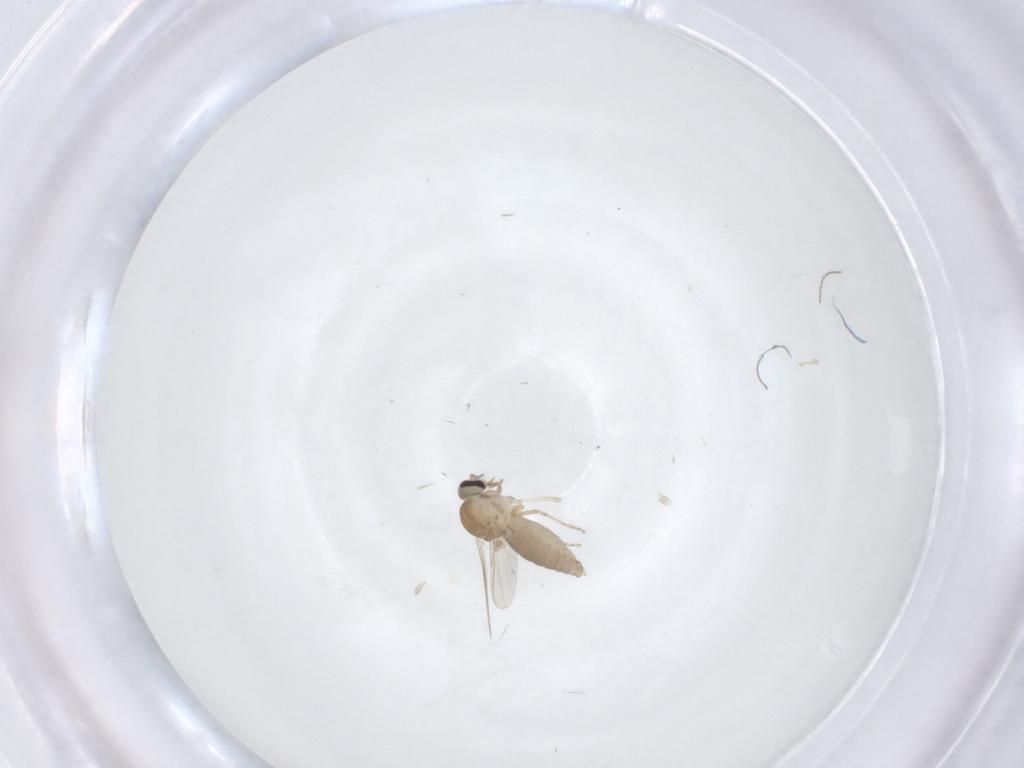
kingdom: Animalia
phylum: Arthropoda
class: Insecta
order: Diptera
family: Ceratopogonidae
